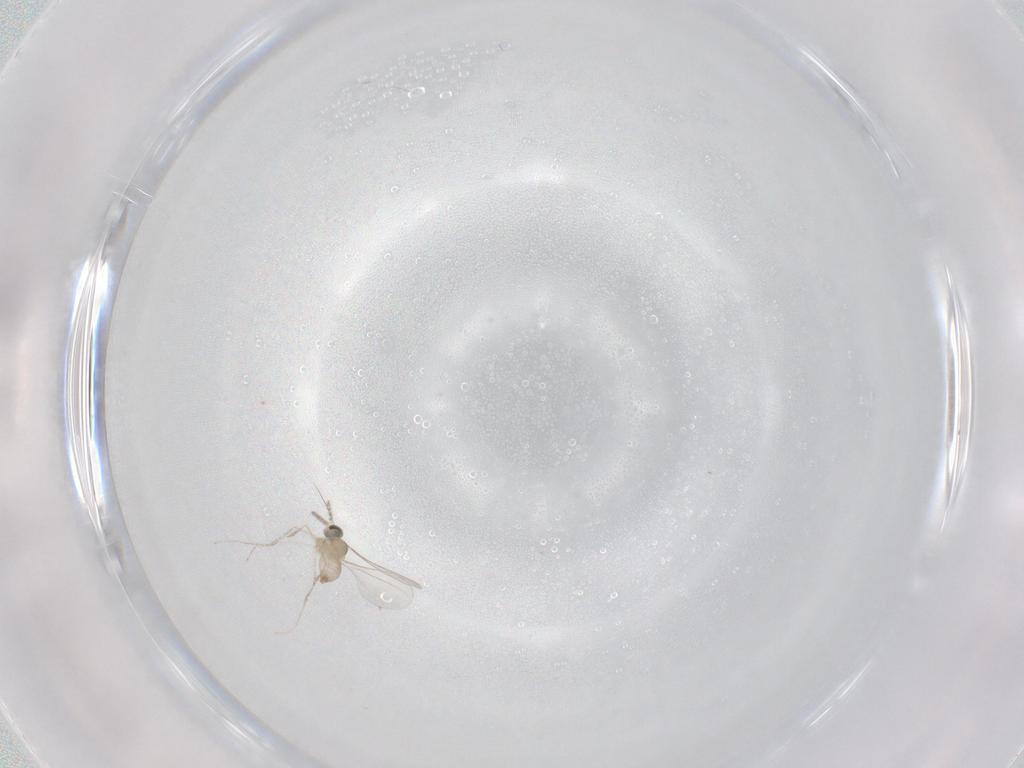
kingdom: Animalia
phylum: Arthropoda
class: Insecta
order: Diptera
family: Cecidomyiidae
